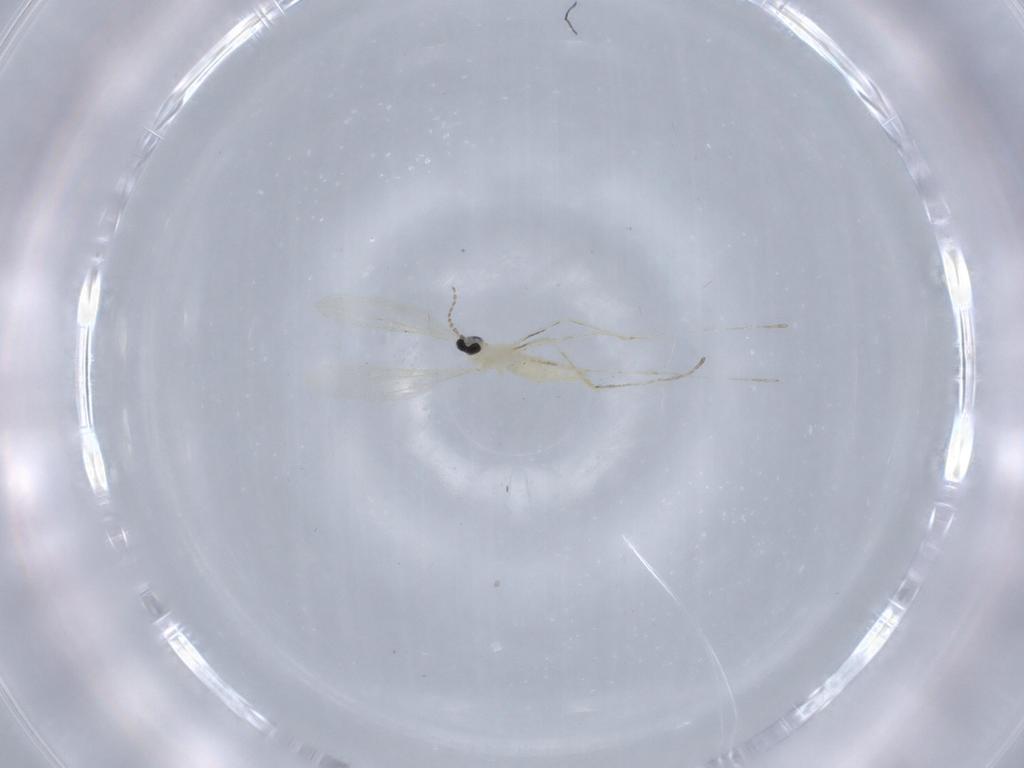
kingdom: Animalia
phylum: Arthropoda
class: Insecta
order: Diptera
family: Cecidomyiidae
